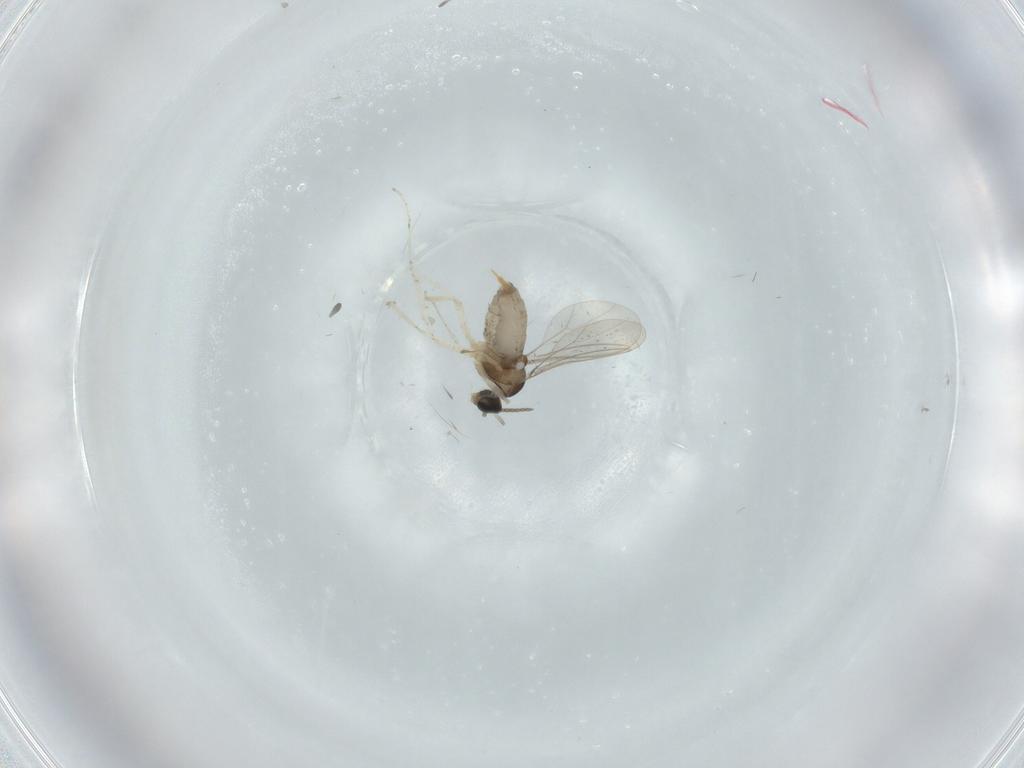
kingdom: Animalia
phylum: Arthropoda
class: Insecta
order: Diptera
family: Cecidomyiidae
